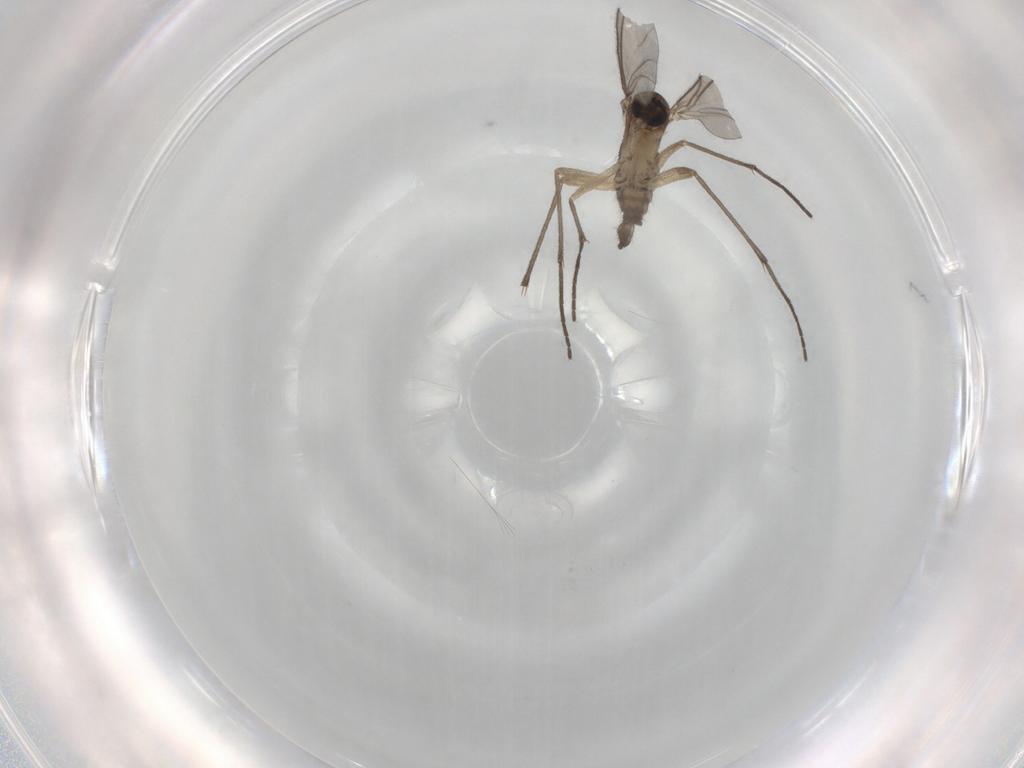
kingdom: Animalia
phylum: Arthropoda
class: Insecta
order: Diptera
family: Sciaridae
